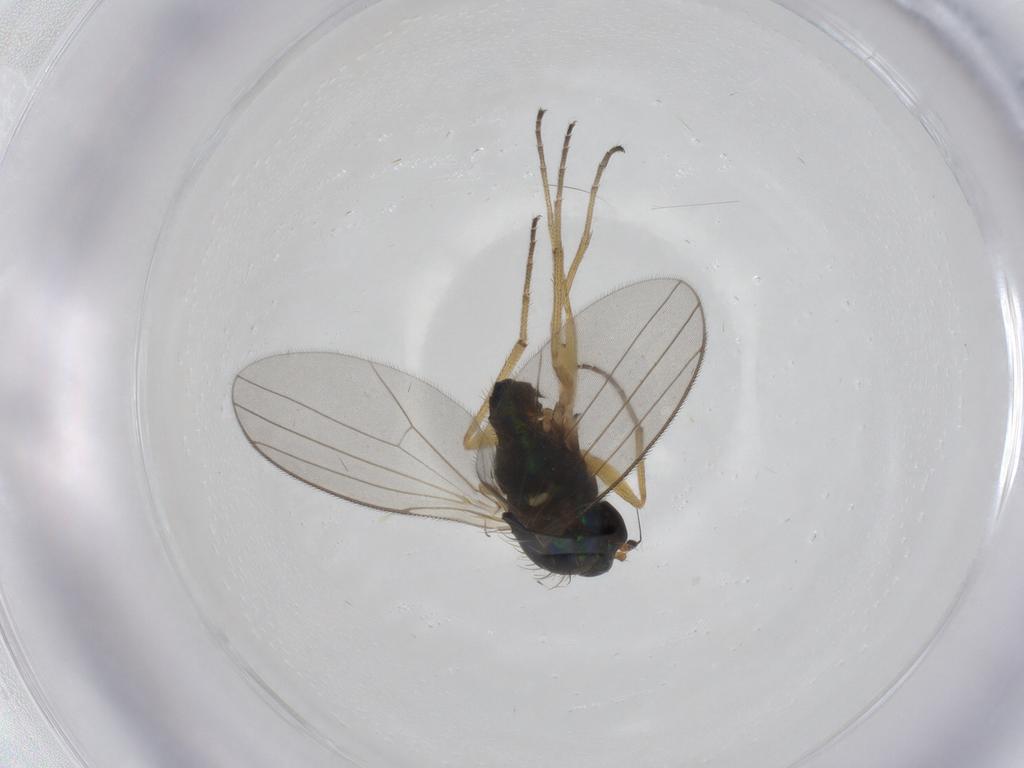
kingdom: Animalia
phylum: Arthropoda
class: Insecta
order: Diptera
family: Dolichopodidae
